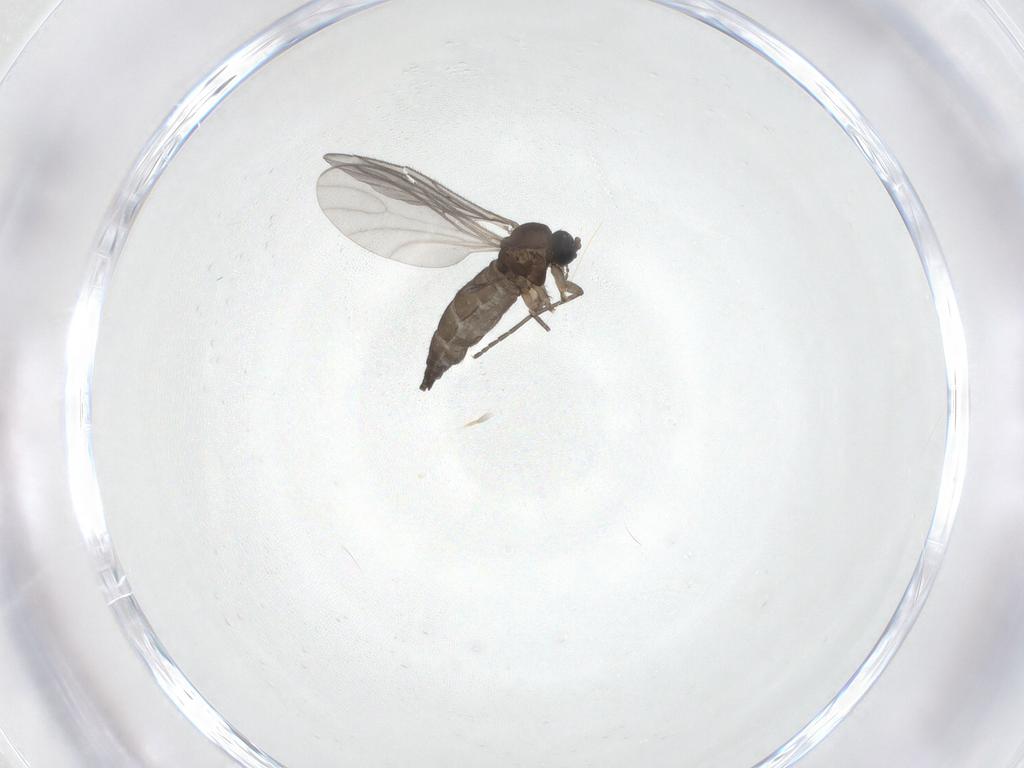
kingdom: Animalia
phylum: Arthropoda
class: Insecta
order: Diptera
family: Sciaridae
